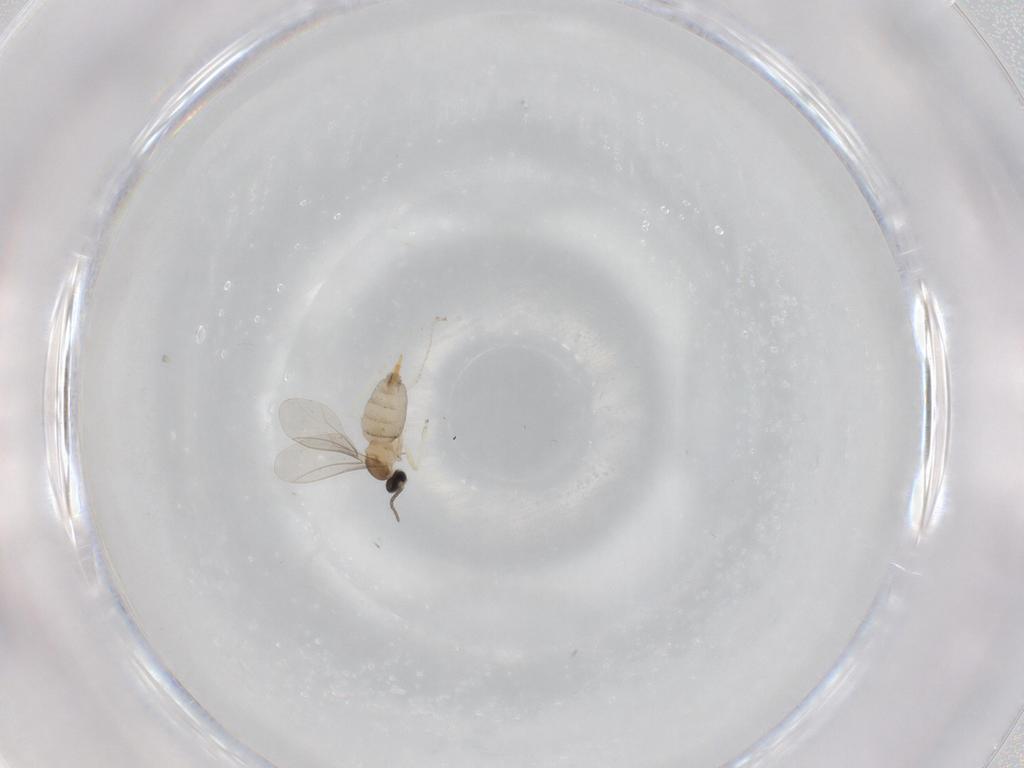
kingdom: Animalia
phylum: Arthropoda
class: Insecta
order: Diptera
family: Cecidomyiidae
